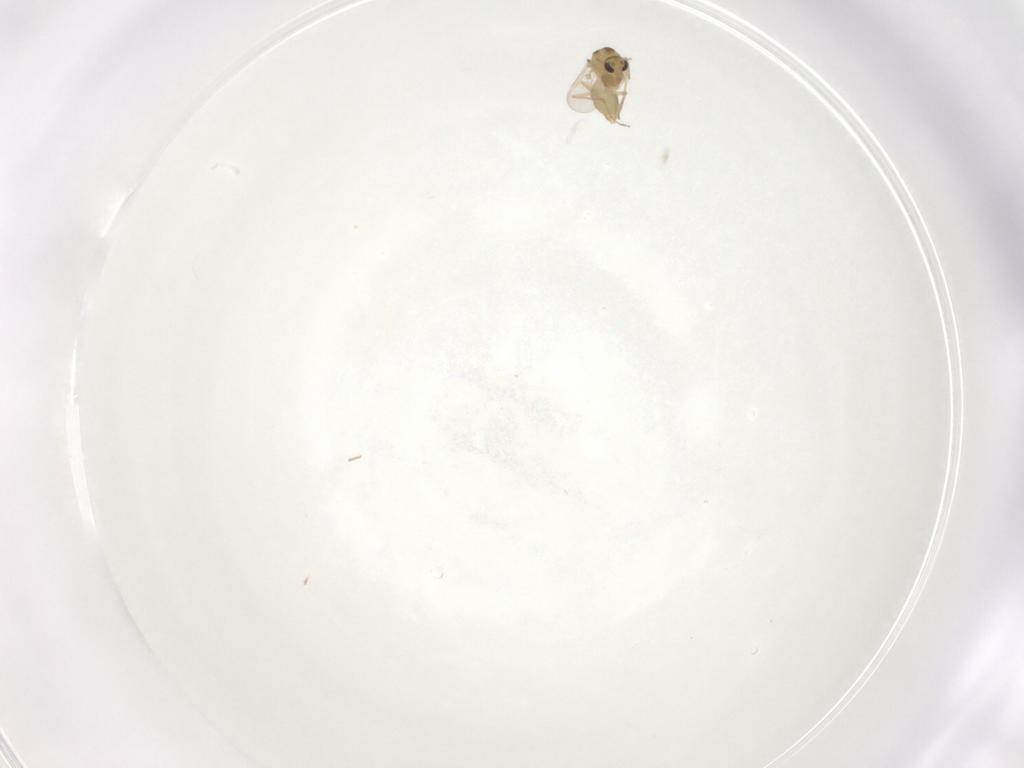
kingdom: Animalia
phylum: Arthropoda
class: Insecta
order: Diptera
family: Chironomidae
